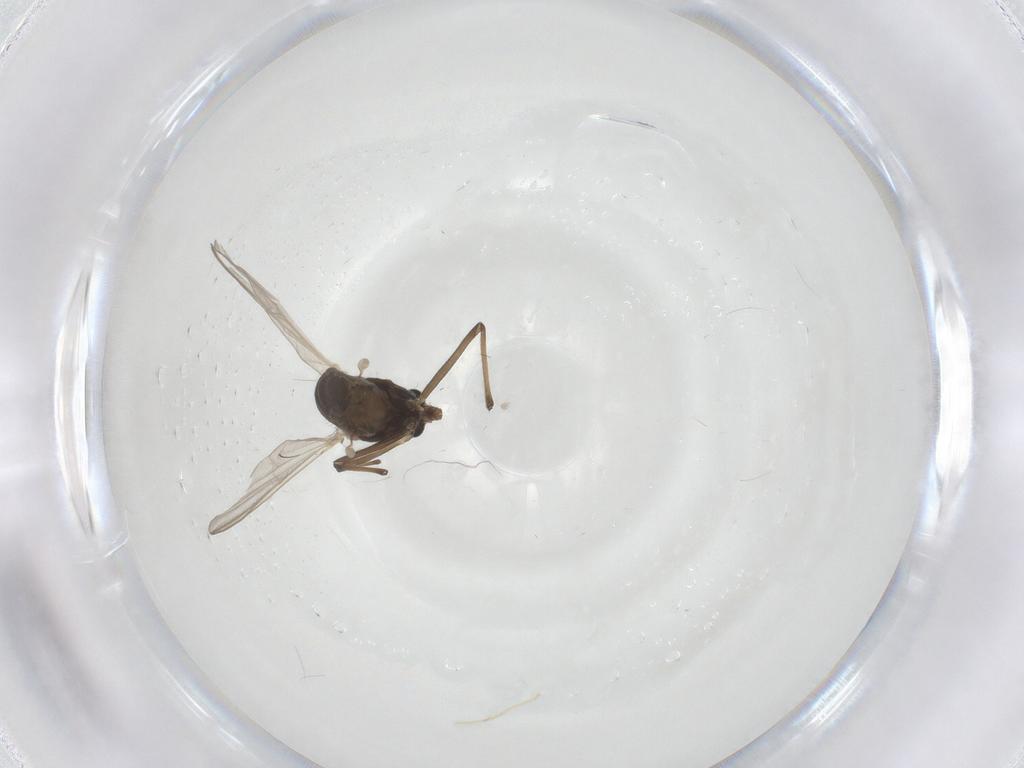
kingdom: Animalia
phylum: Arthropoda
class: Insecta
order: Diptera
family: Chironomidae
